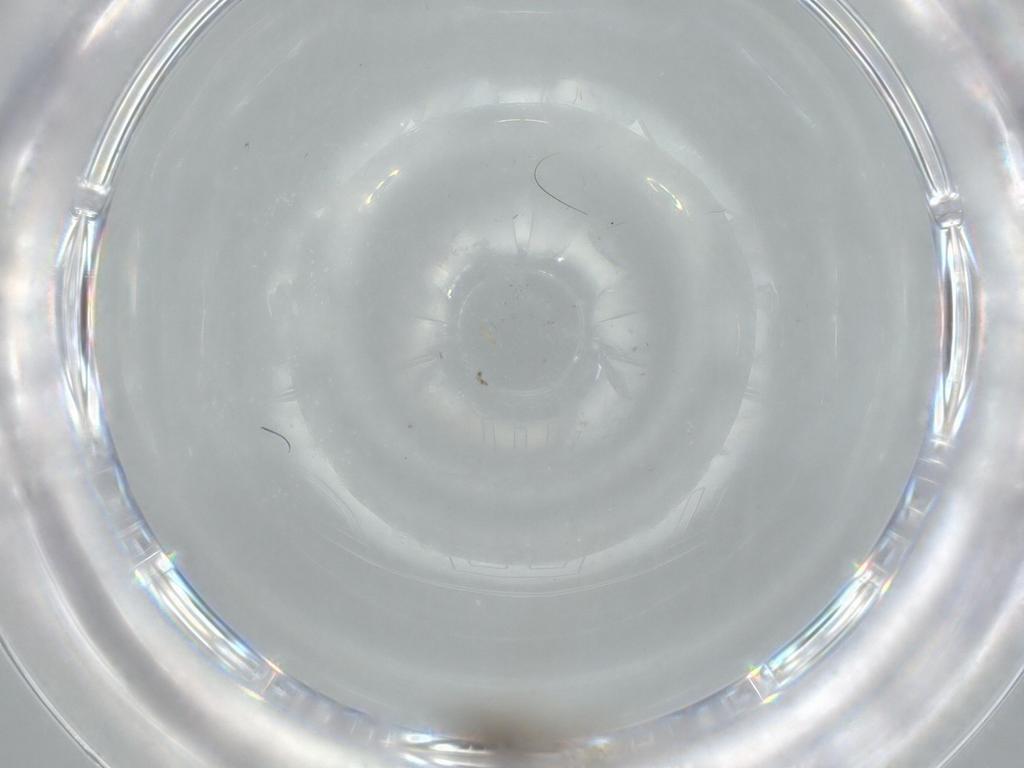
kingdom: Animalia
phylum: Arthropoda
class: Insecta
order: Diptera
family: Cecidomyiidae
